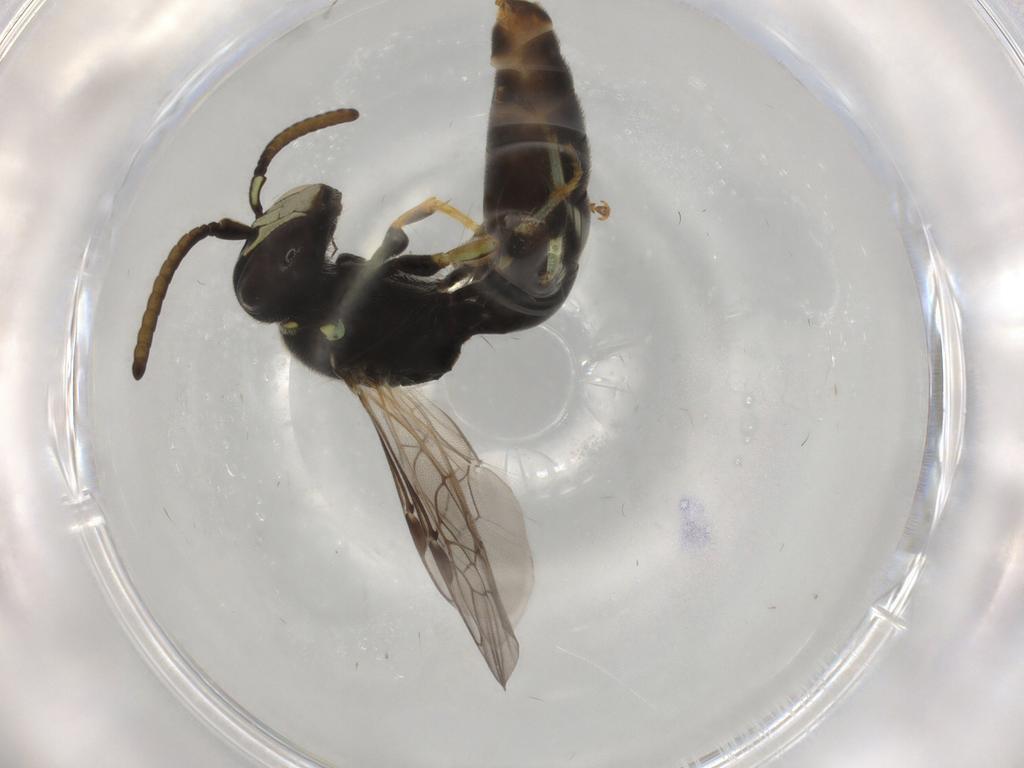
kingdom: Animalia
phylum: Arthropoda
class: Insecta
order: Hymenoptera
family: Colletidae
